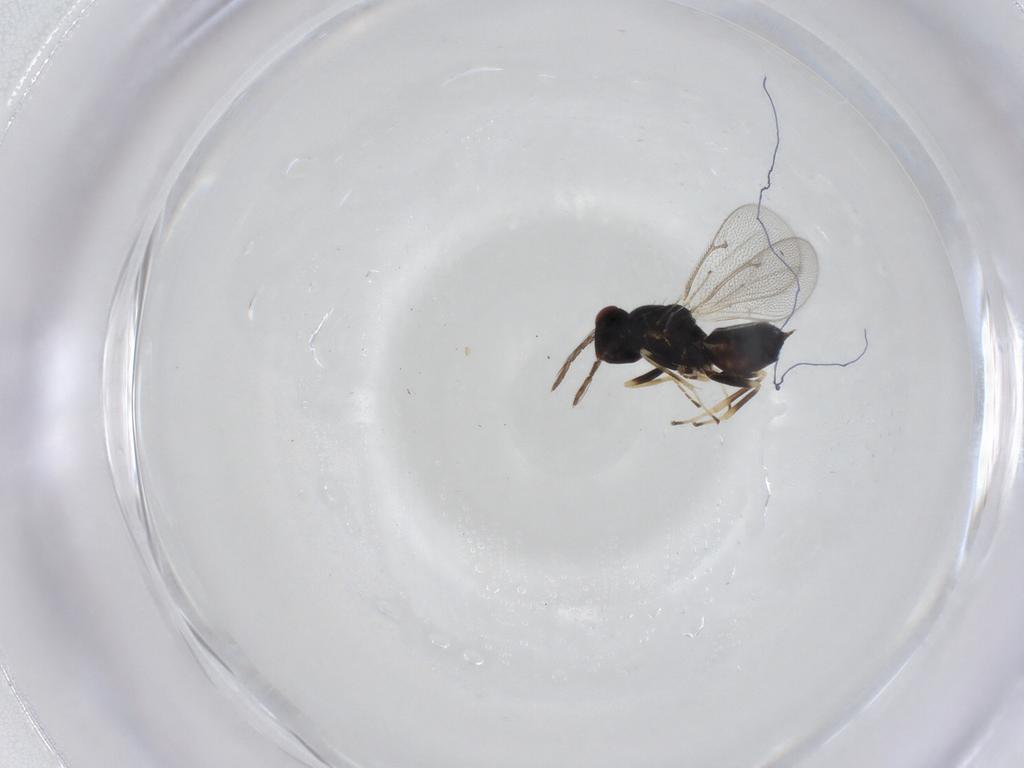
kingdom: Animalia
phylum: Arthropoda
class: Insecta
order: Hymenoptera
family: Eulophidae
